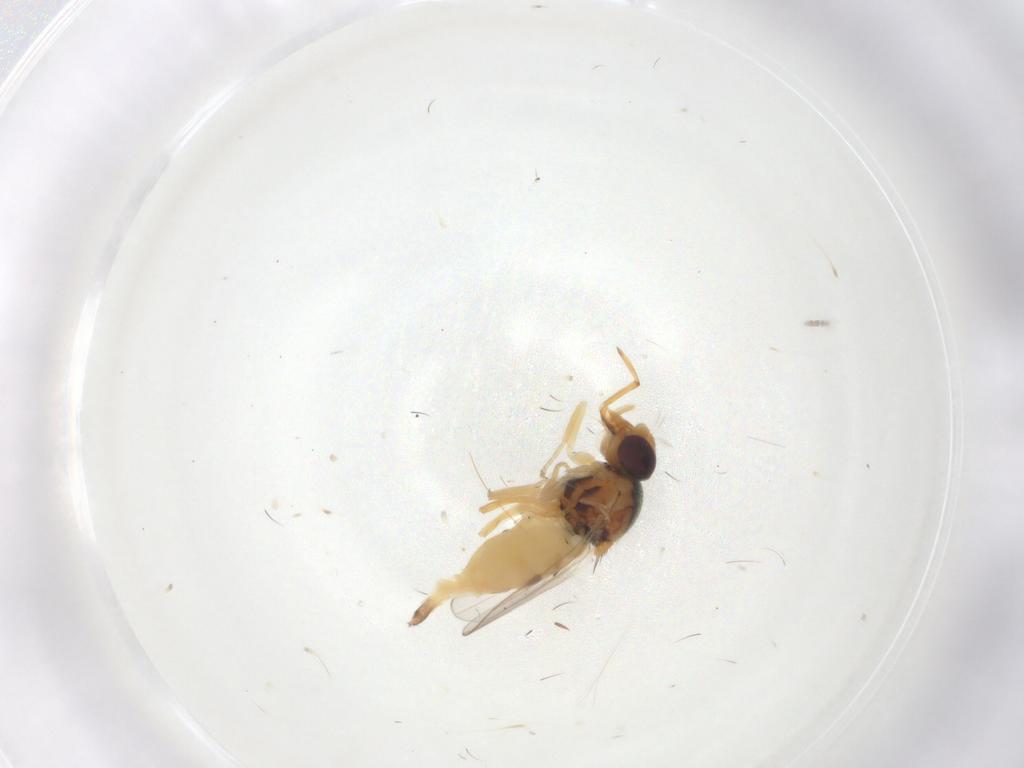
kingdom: Animalia
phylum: Arthropoda
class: Insecta
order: Diptera
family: Chloropidae
